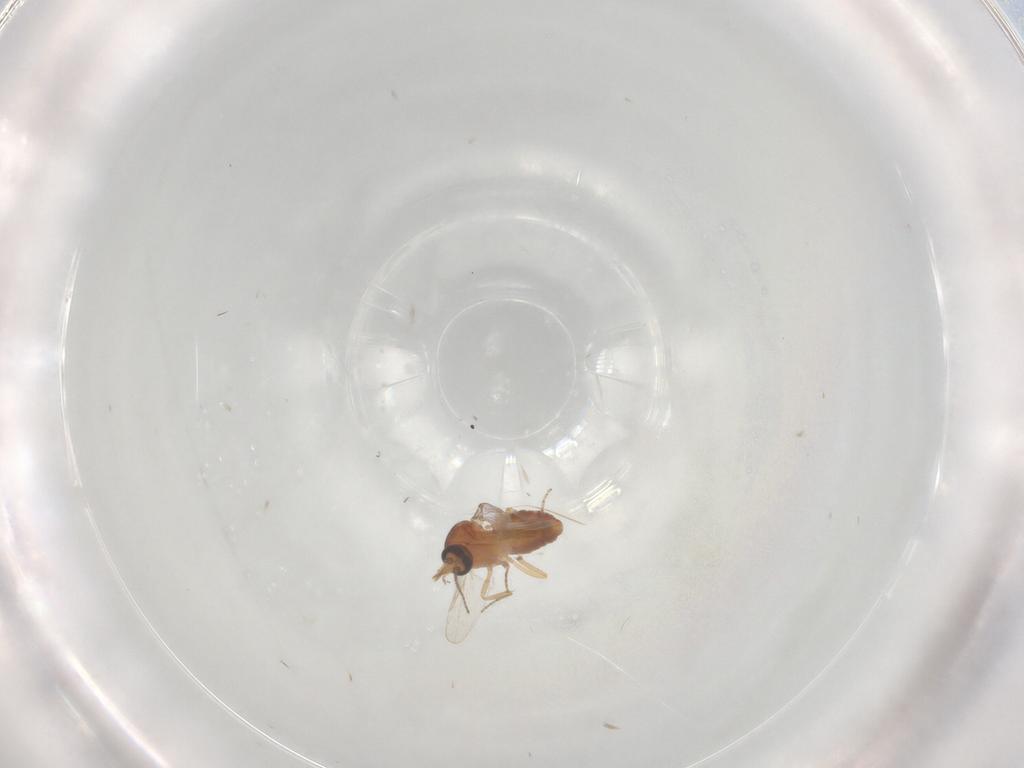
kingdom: Animalia
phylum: Arthropoda
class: Insecta
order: Diptera
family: Ceratopogonidae
